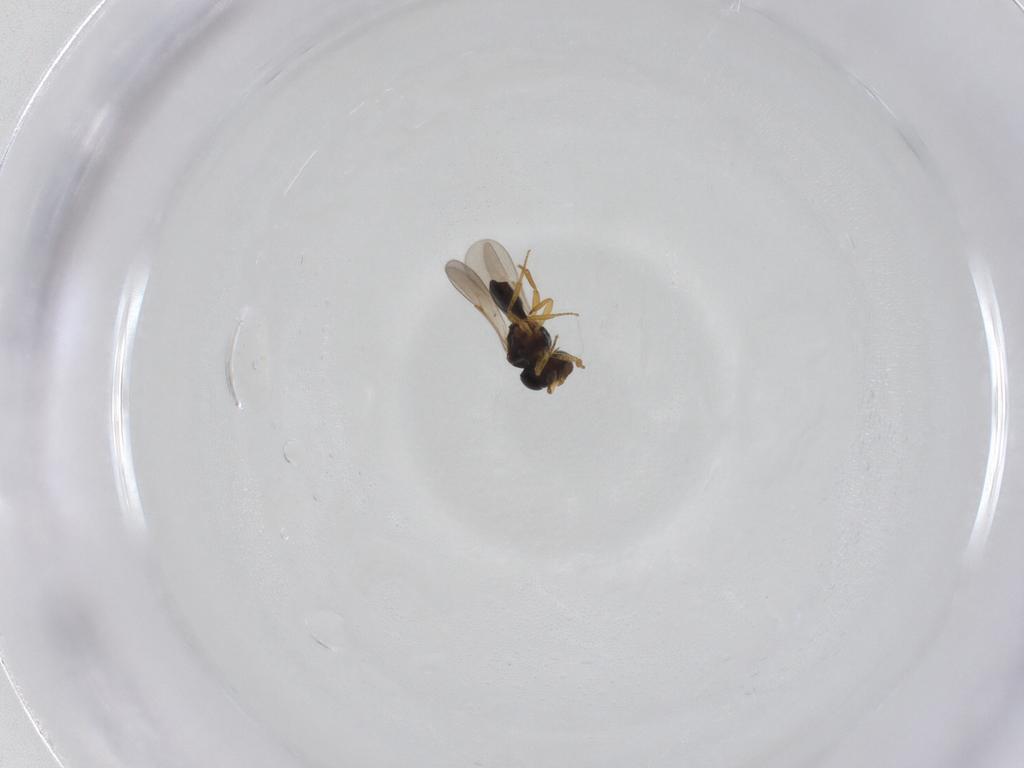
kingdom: Animalia
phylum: Arthropoda
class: Insecta
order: Hymenoptera
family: Scelionidae
